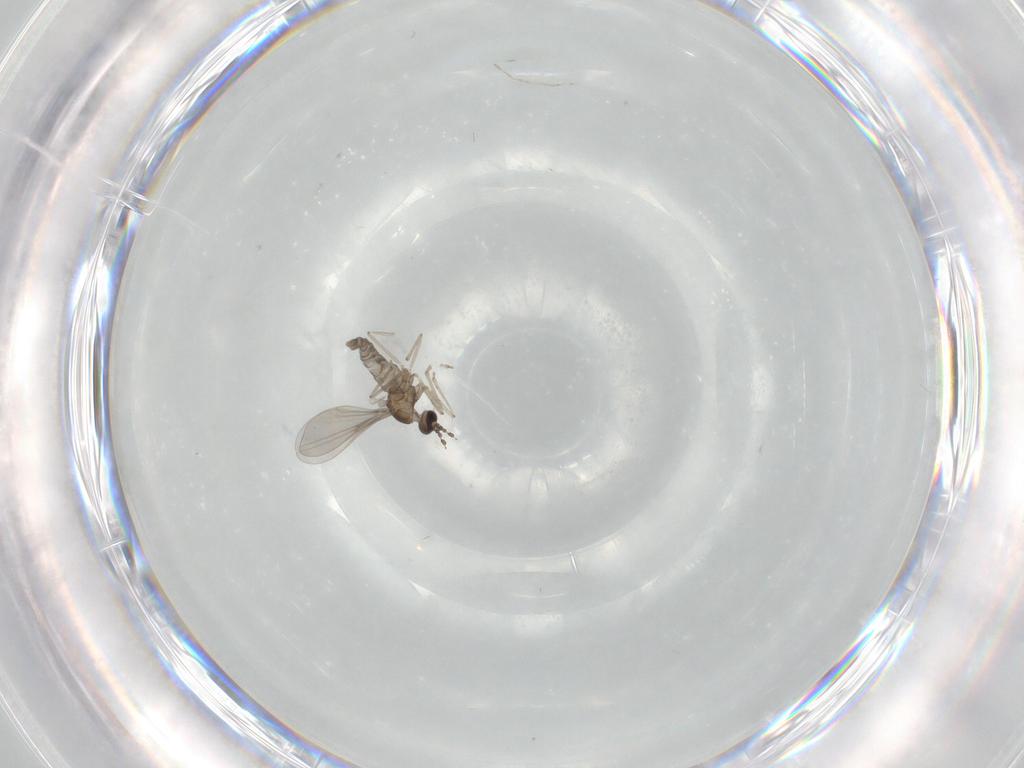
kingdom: Animalia
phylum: Arthropoda
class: Insecta
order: Diptera
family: Cecidomyiidae
